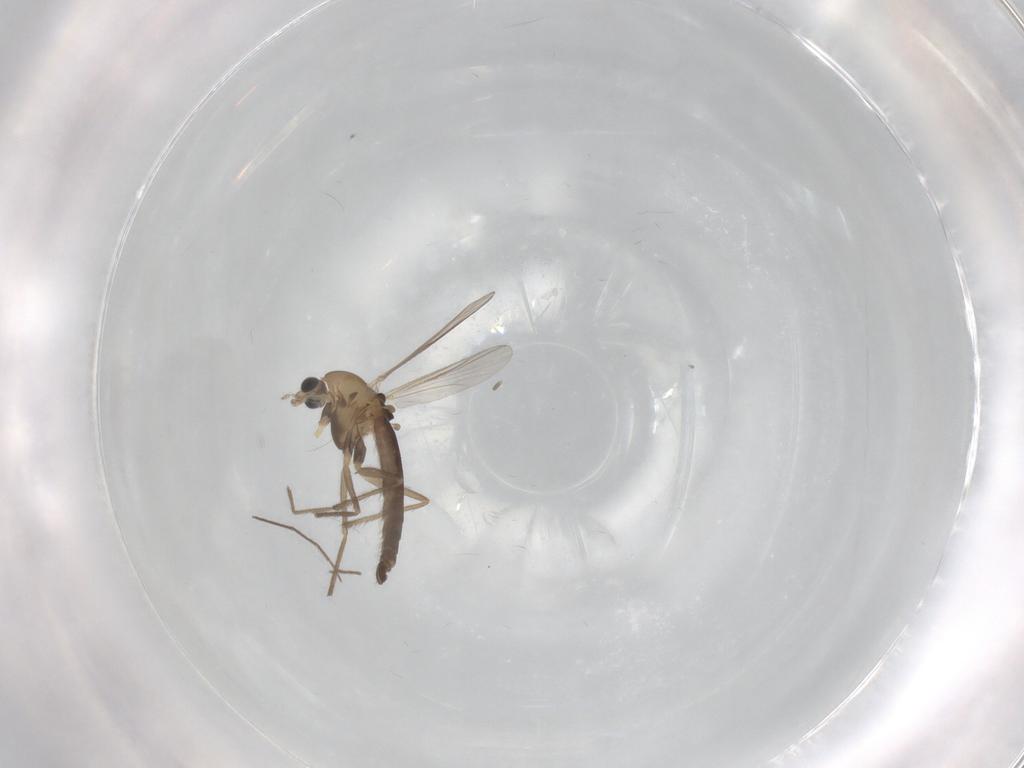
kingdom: Animalia
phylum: Arthropoda
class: Insecta
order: Diptera
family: Chironomidae
